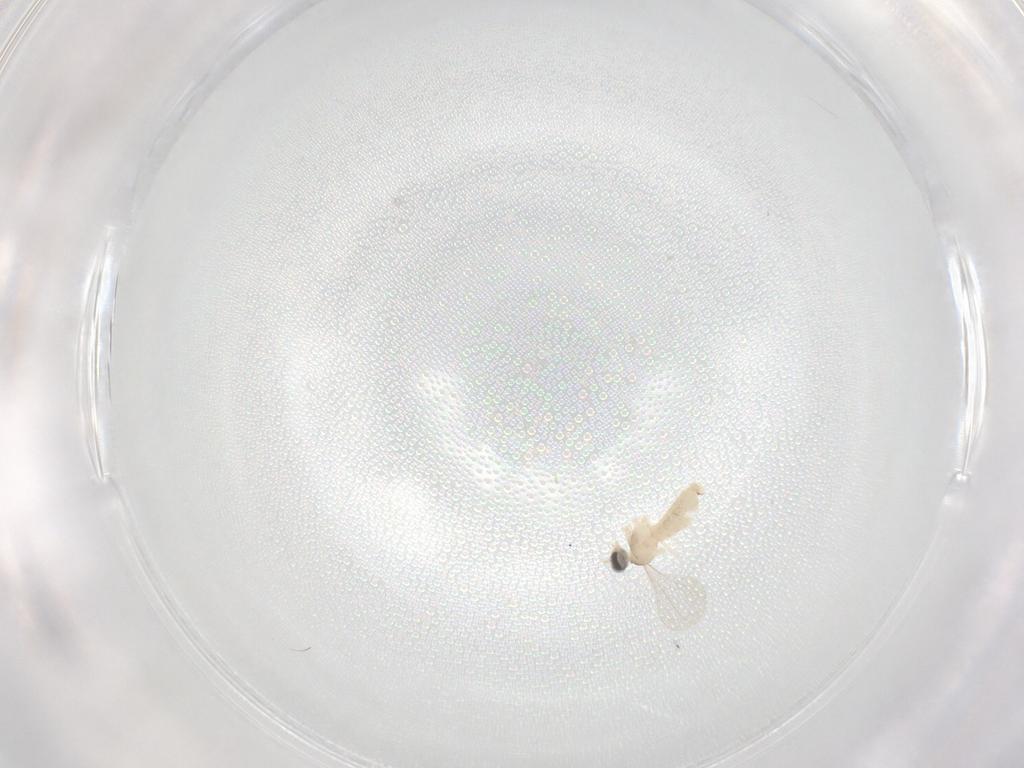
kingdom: Animalia
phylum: Arthropoda
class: Insecta
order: Diptera
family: Cecidomyiidae
